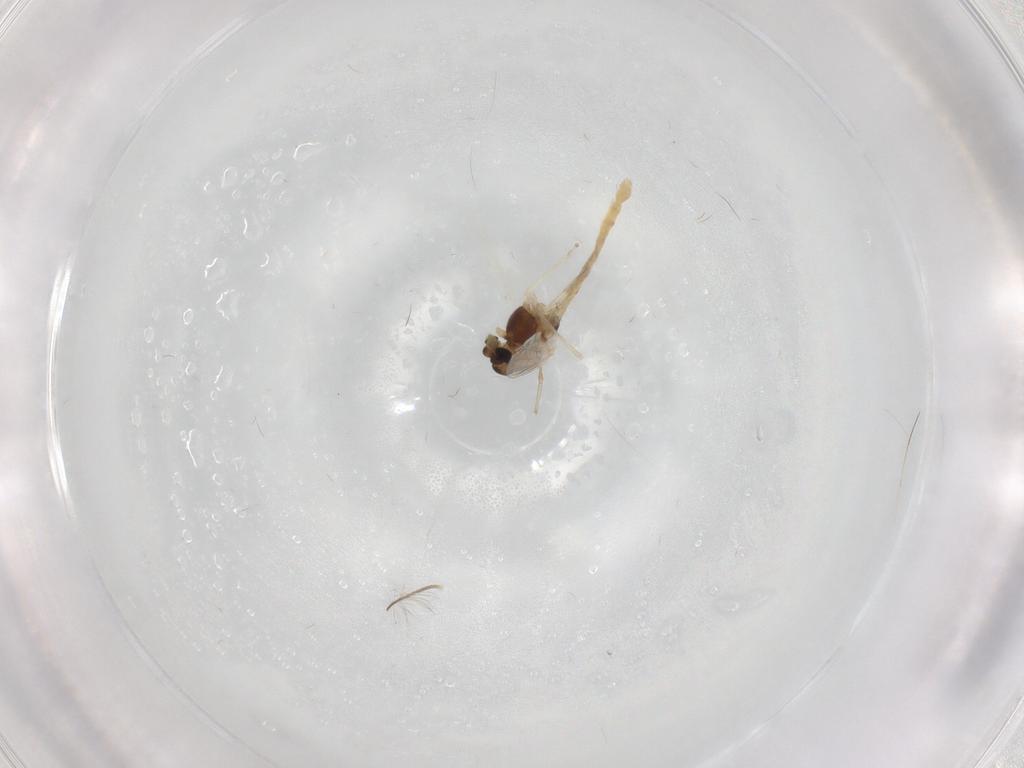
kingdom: Animalia
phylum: Arthropoda
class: Insecta
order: Diptera
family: Chironomidae
